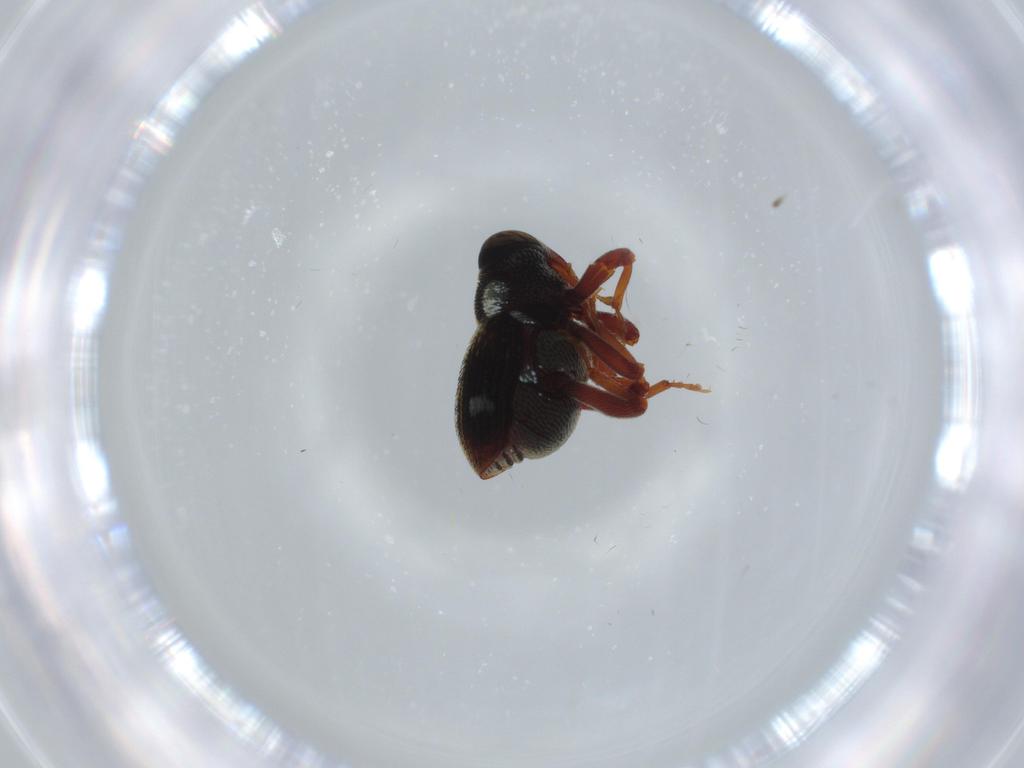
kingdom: Animalia
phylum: Arthropoda
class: Insecta
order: Coleoptera
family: Curculionidae
